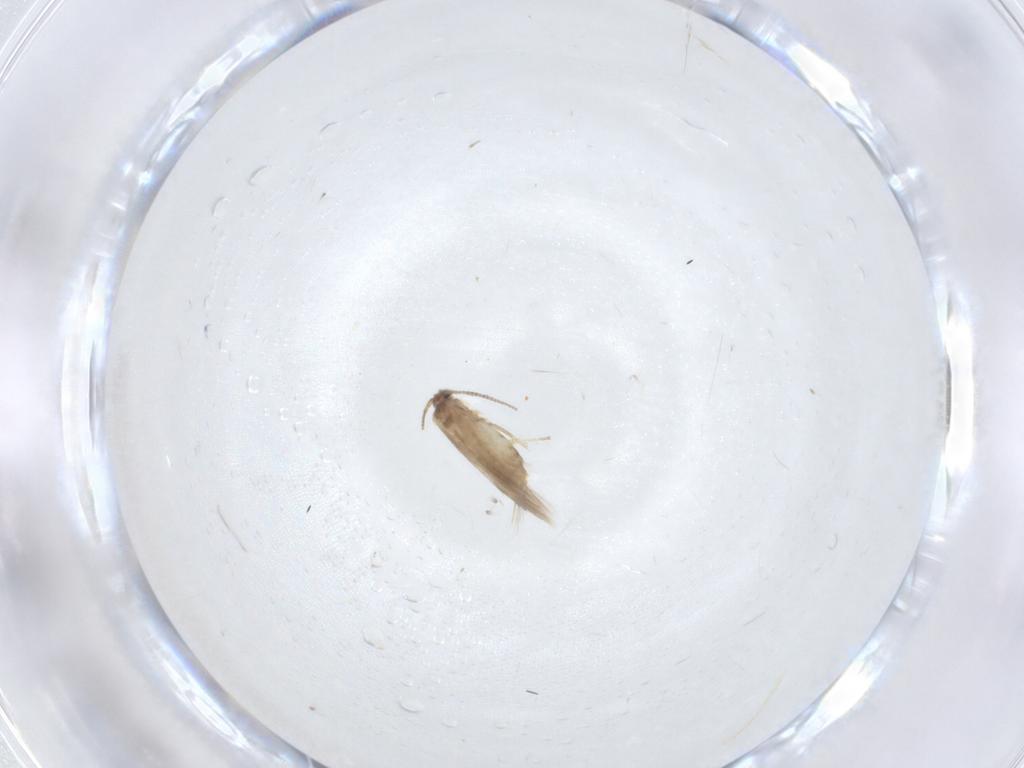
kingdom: Animalia
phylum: Arthropoda
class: Insecta
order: Lepidoptera
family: Nepticulidae
